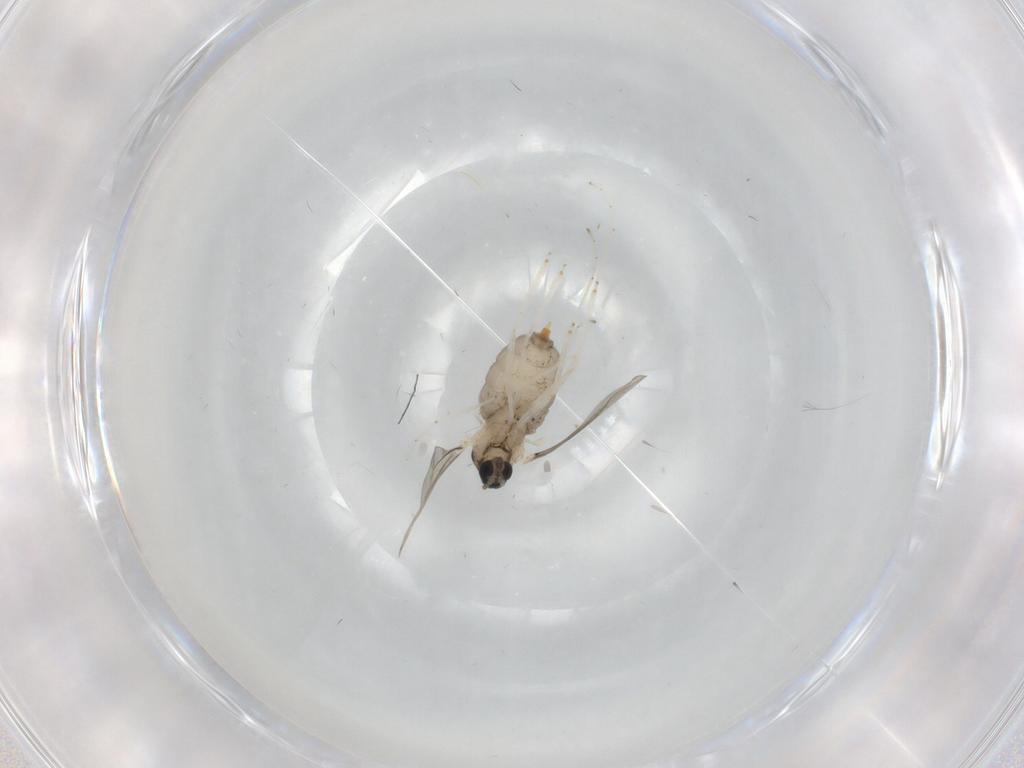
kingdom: Animalia
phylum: Arthropoda
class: Insecta
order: Diptera
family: Cecidomyiidae
